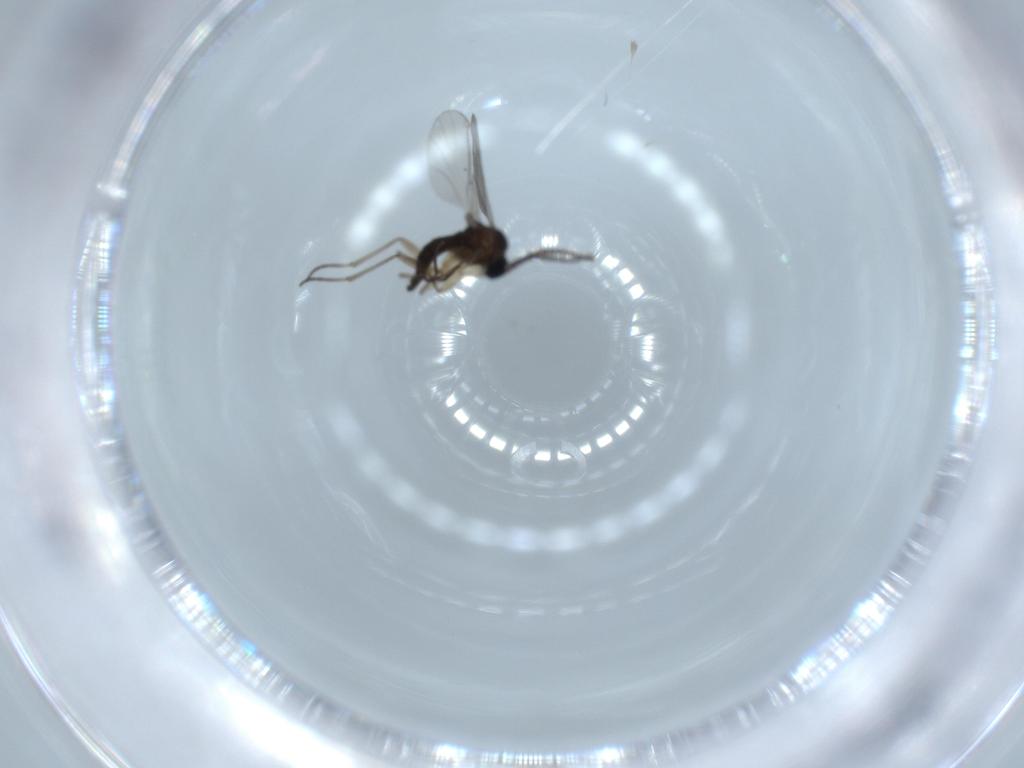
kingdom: Animalia
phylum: Arthropoda
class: Insecta
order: Diptera
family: Sciaridae
